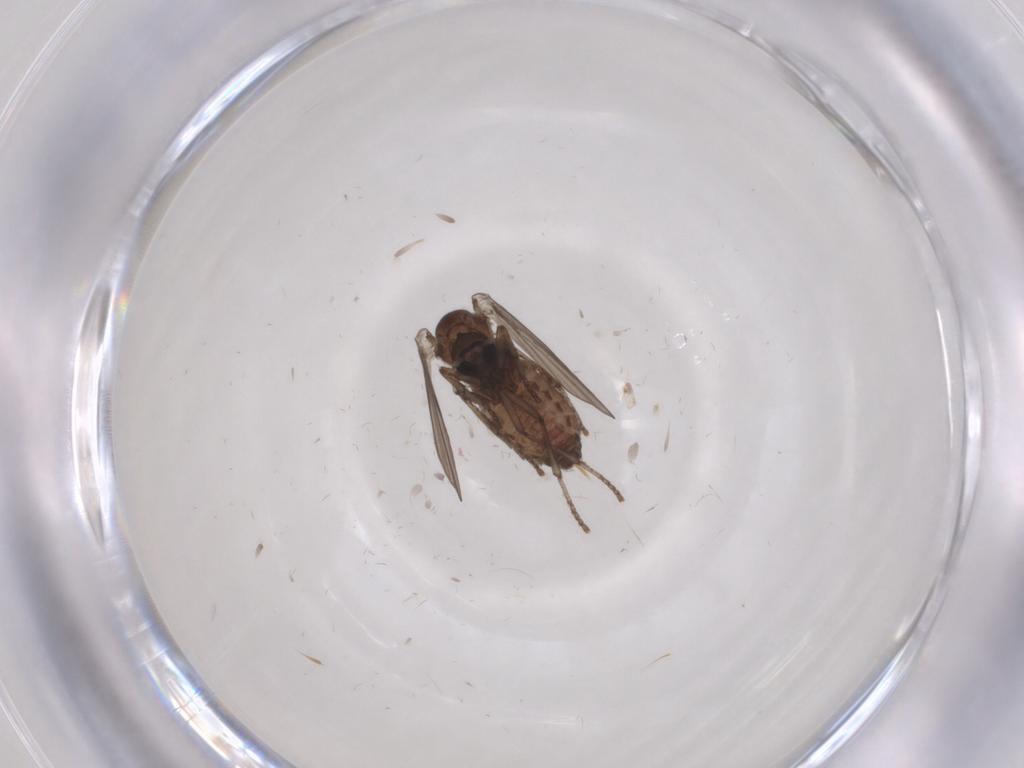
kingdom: Animalia
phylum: Arthropoda
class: Insecta
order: Diptera
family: Psychodidae
